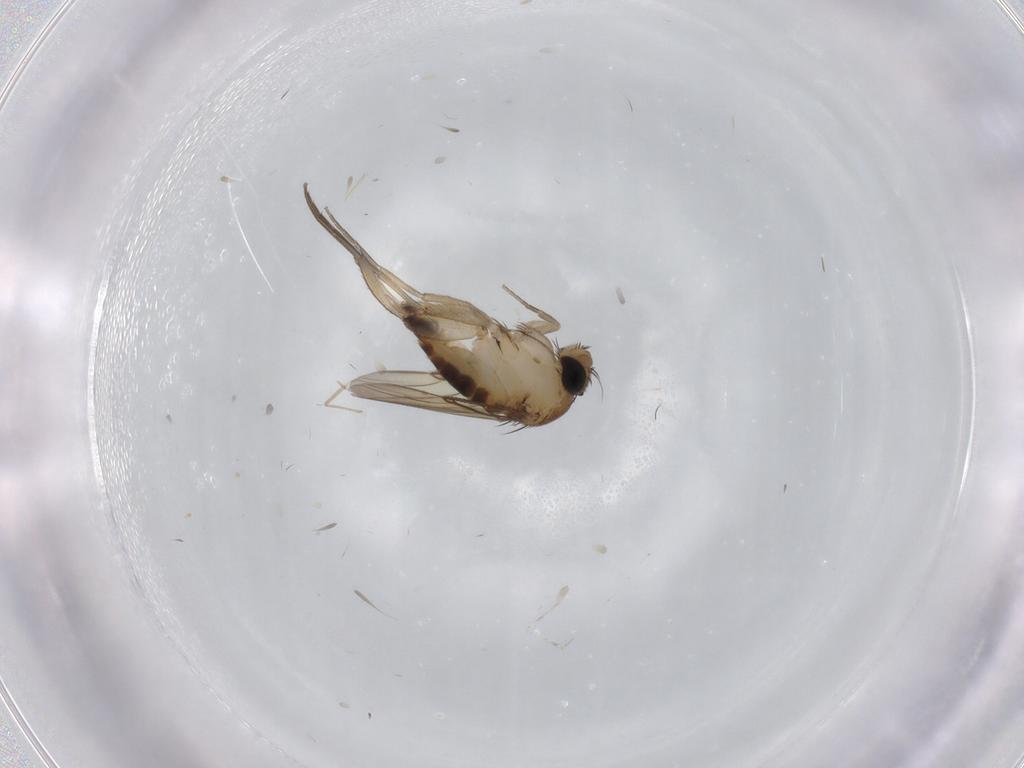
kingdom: Animalia
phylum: Arthropoda
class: Insecta
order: Diptera
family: Phoridae
